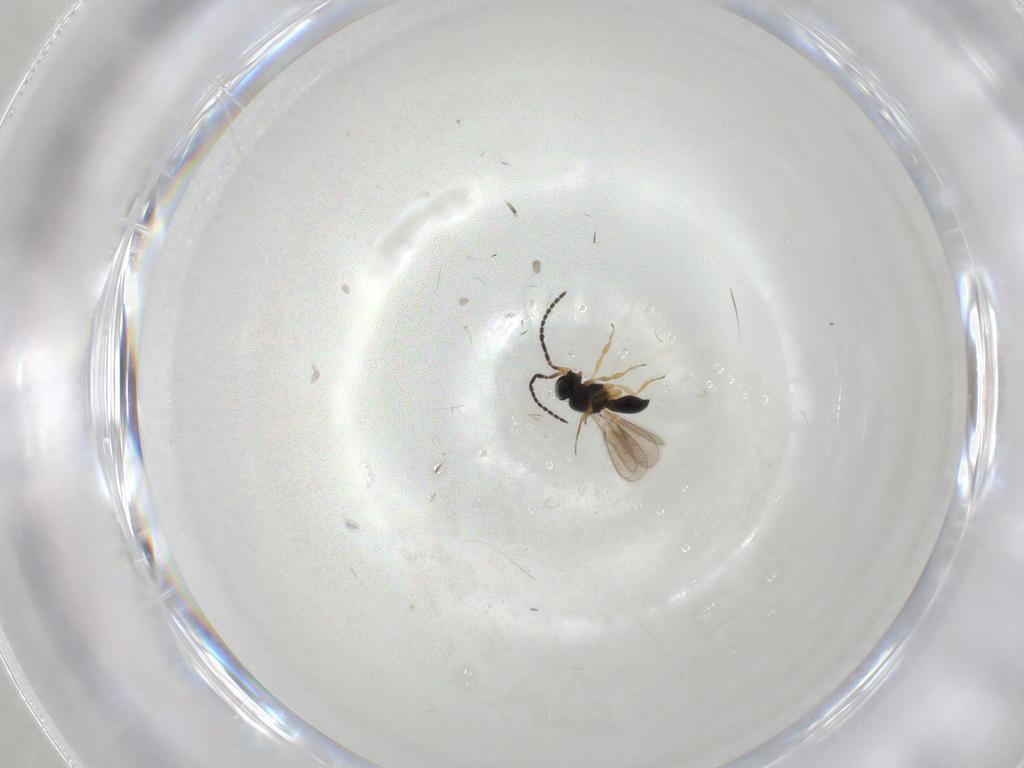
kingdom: Animalia
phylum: Arthropoda
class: Insecta
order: Hymenoptera
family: Scelionidae
